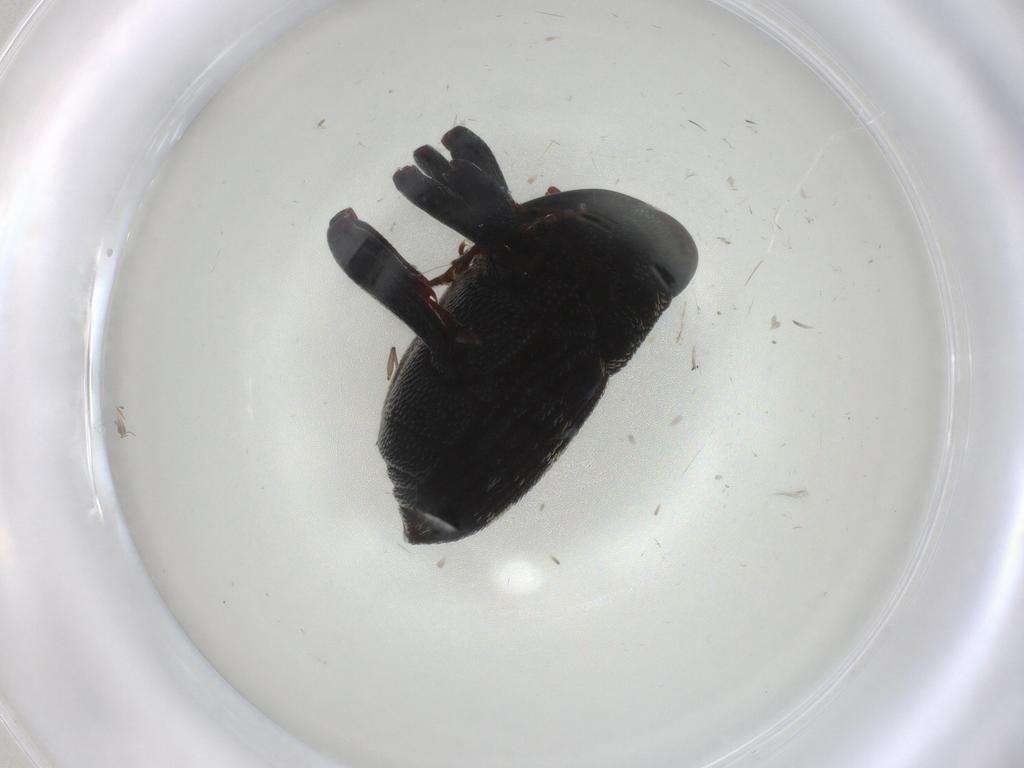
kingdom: Animalia
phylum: Arthropoda
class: Insecta
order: Coleoptera
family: Curculionidae
